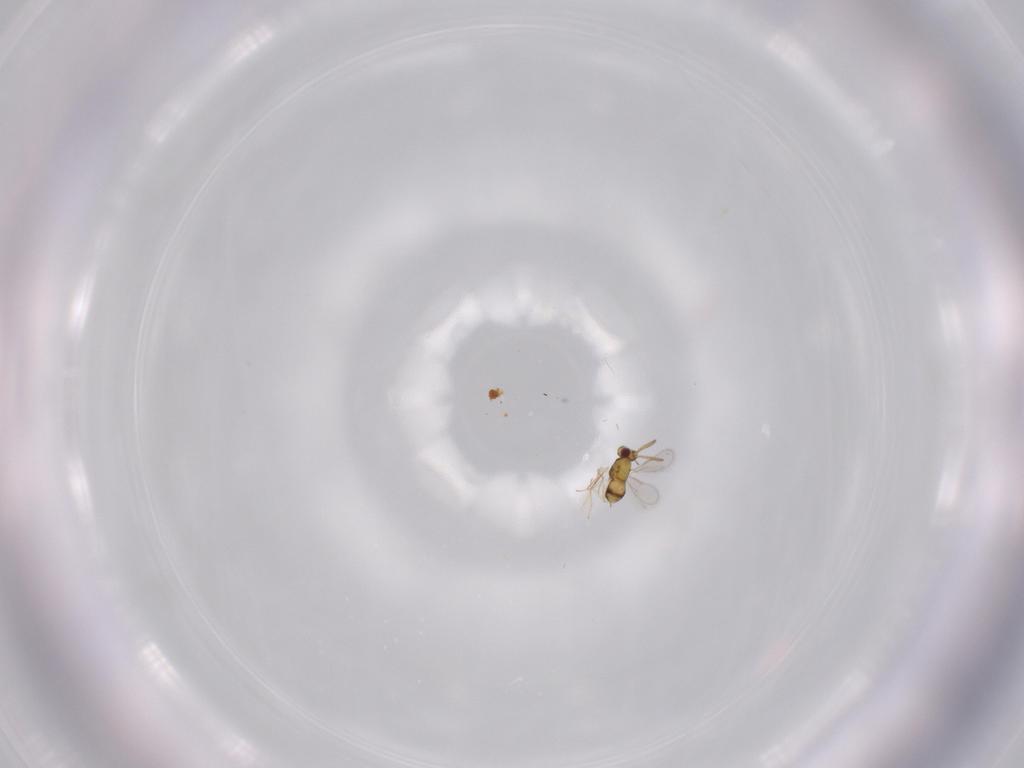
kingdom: Animalia
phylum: Arthropoda
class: Insecta
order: Hymenoptera
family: Aphelinidae
